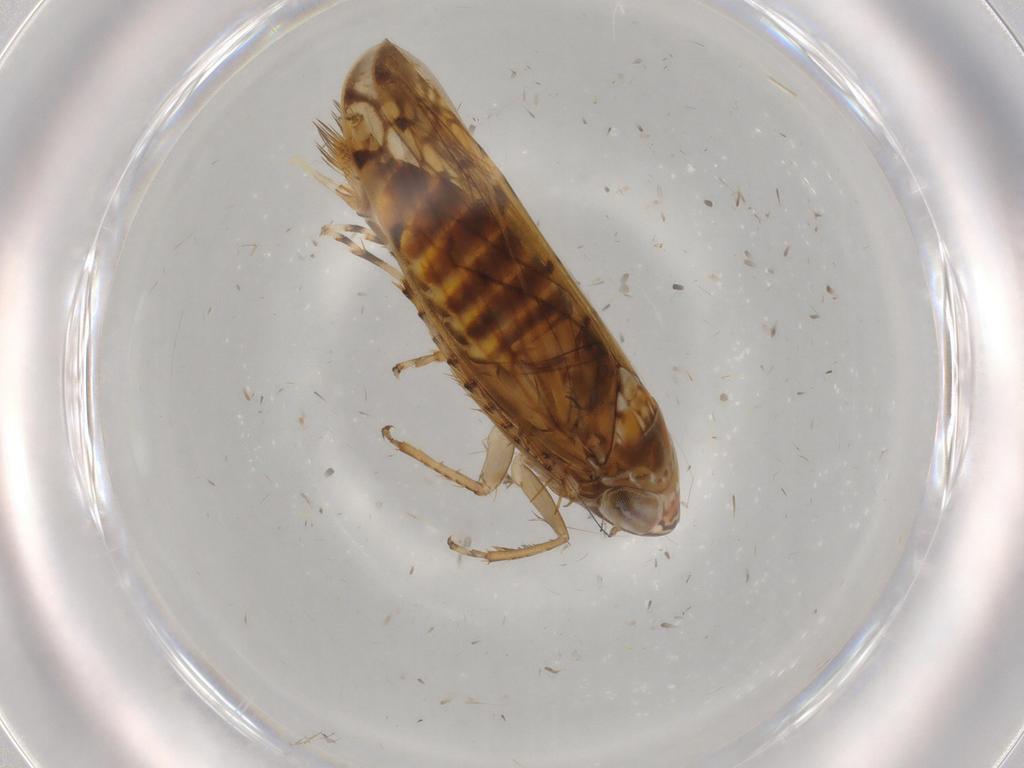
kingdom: Animalia
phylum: Arthropoda
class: Insecta
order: Hemiptera
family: Cicadellidae
